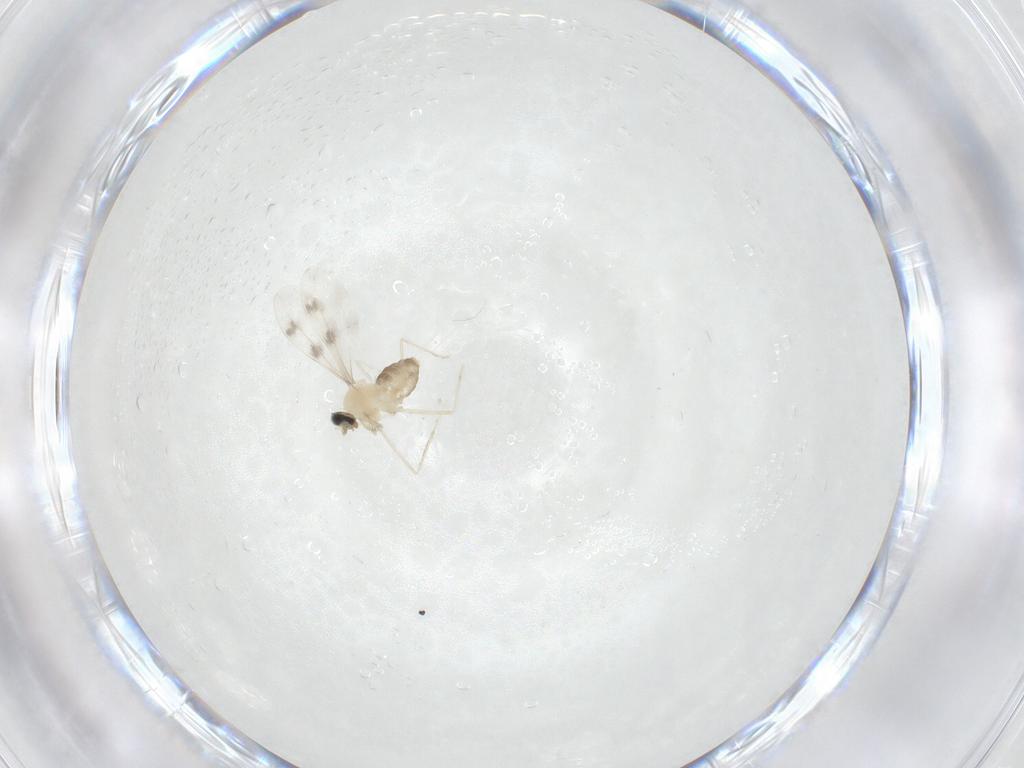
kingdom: Animalia
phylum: Arthropoda
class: Insecta
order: Diptera
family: Cecidomyiidae
